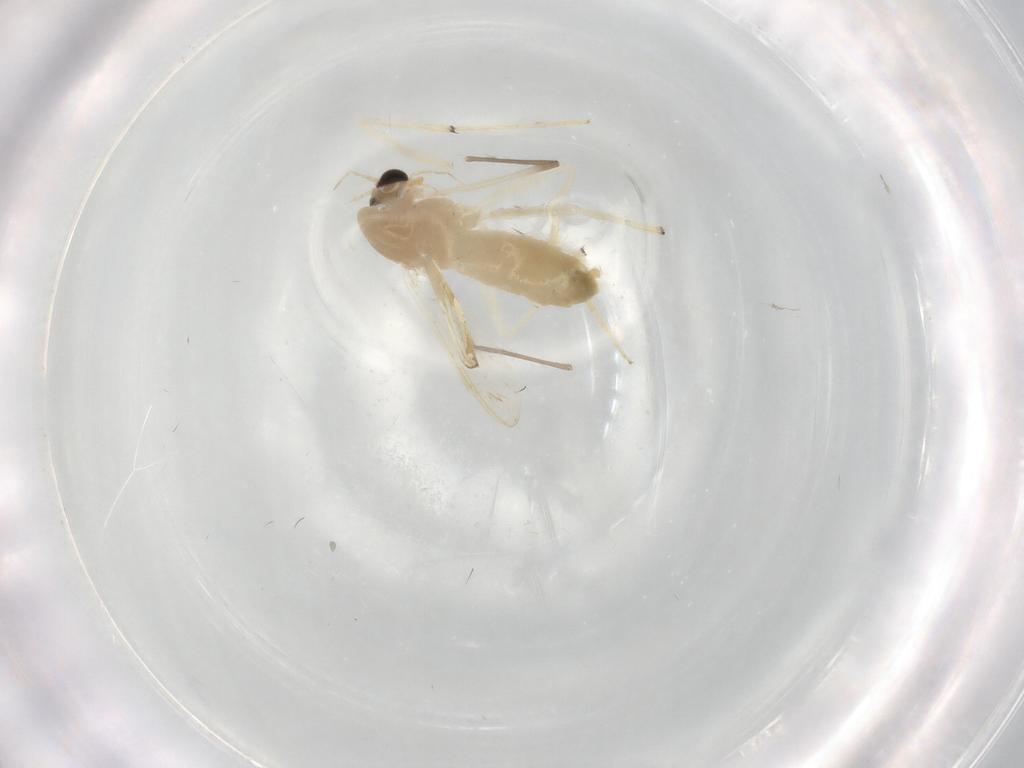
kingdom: Animalia
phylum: Arthropoda
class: Insecta
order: Diptera
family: Chironomidae
